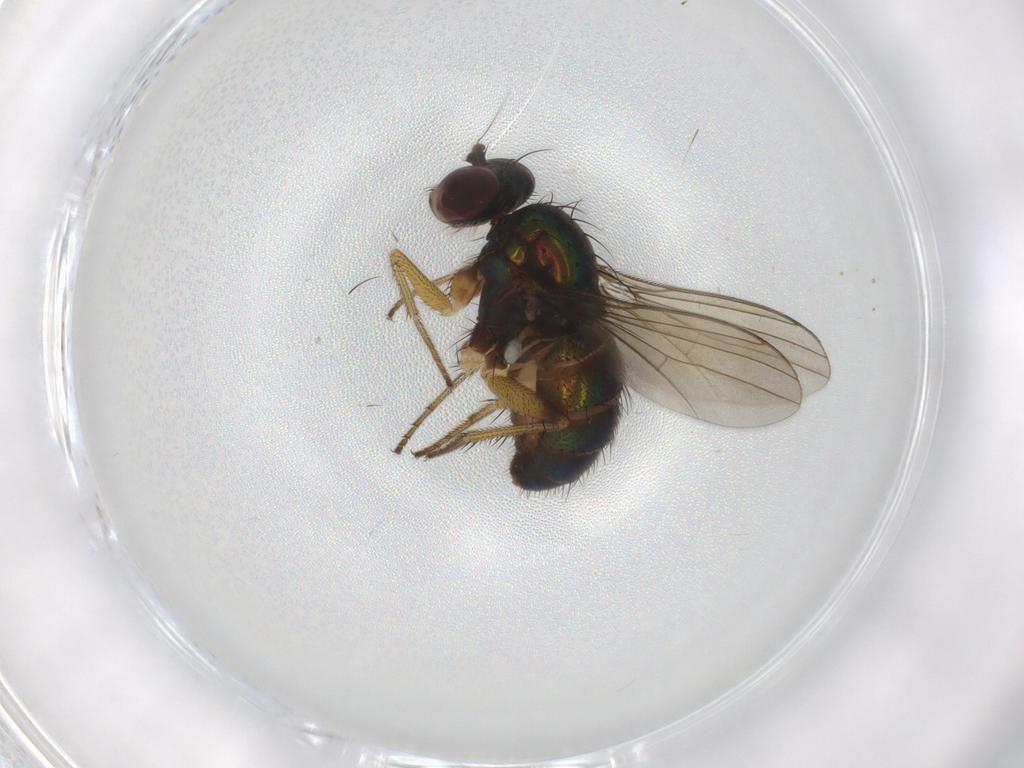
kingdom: Animalia
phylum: Arthropoda
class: Insecta
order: Diptera
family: Dolichopodidae
